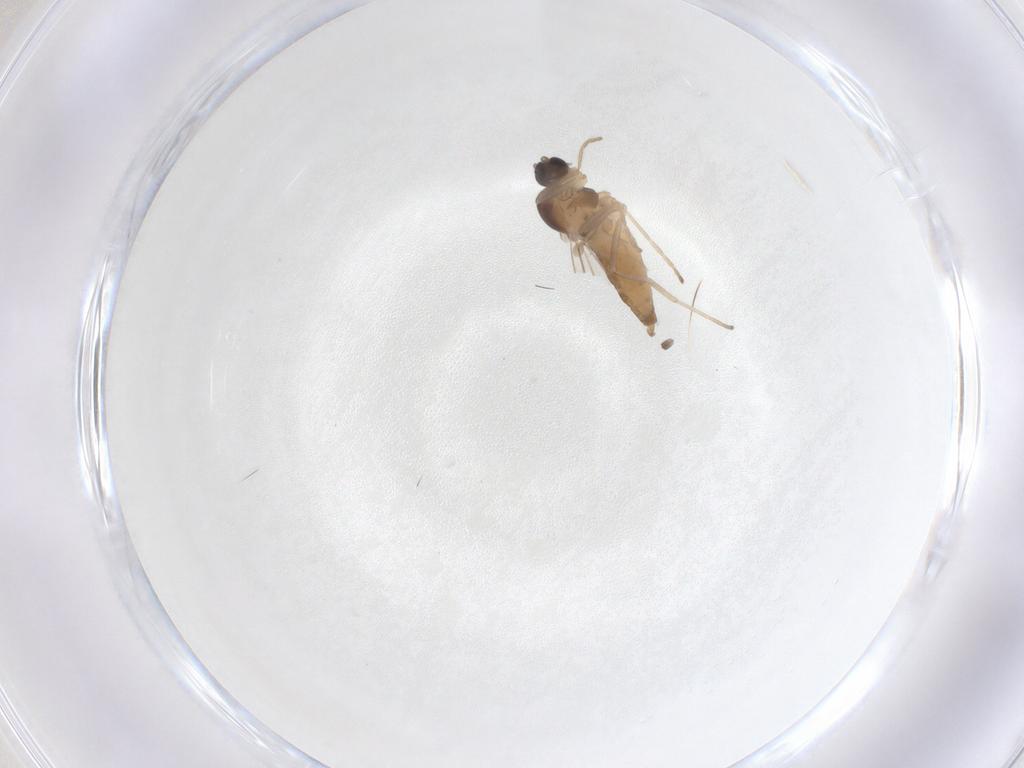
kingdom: Animalia
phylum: Arthropoda
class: Insecta
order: Diptera
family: Cecidomyiidae
